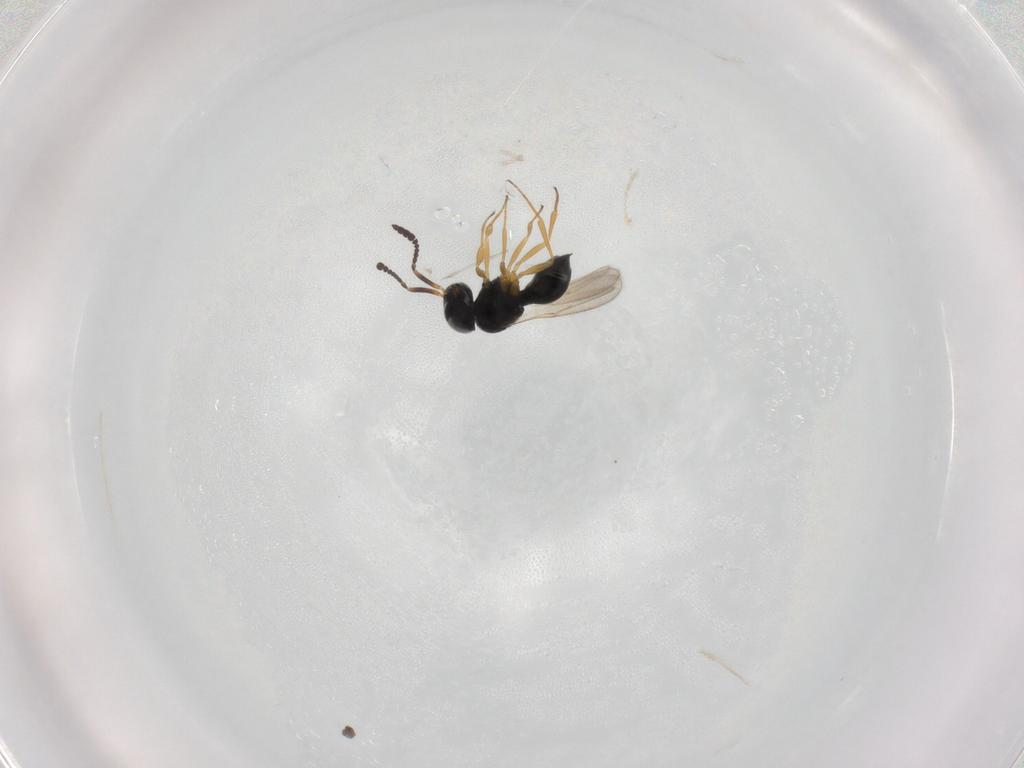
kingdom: Animalia
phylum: Arthropoda
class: Insecta
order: Hymenoptera
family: Scelionidae
